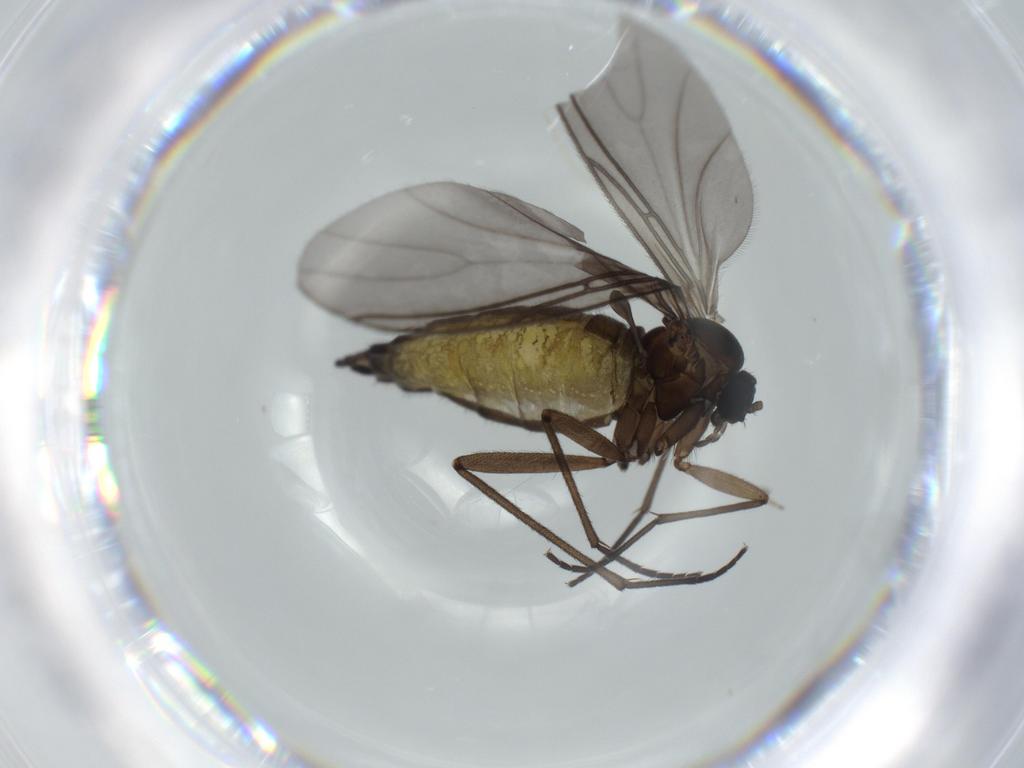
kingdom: Animalia
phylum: Arthropoda
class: Insecta
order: Diptera
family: Sciaridae
